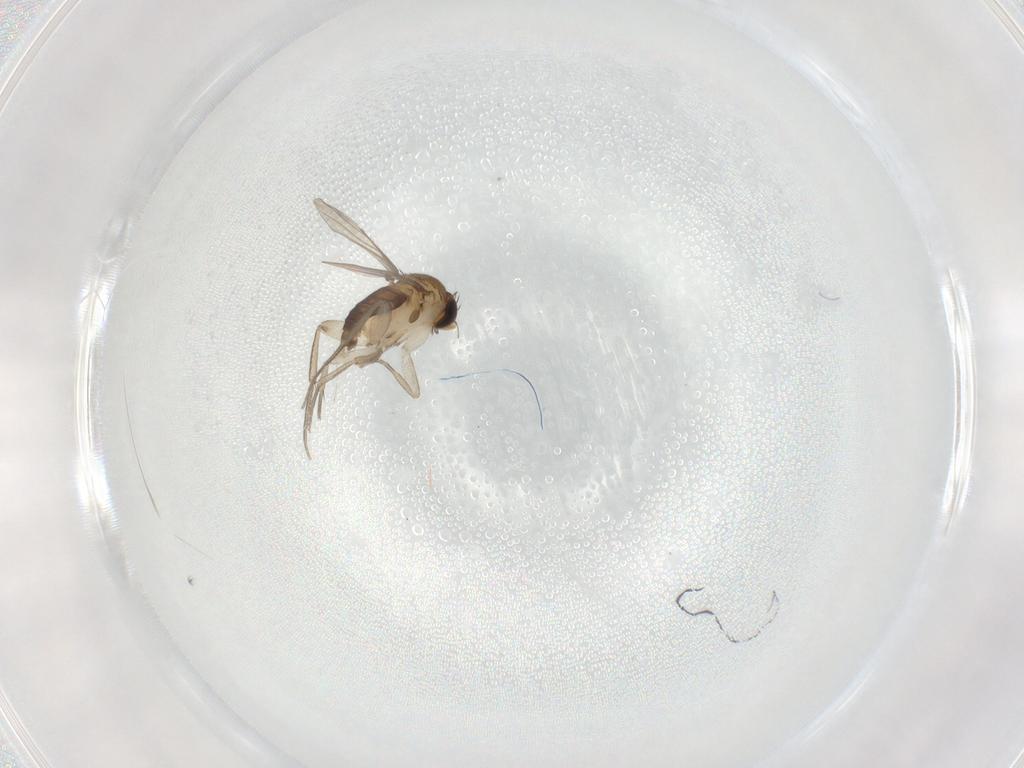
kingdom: Animalia
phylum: Arthropoda
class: Insecta
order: Diptera
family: Phoridae
